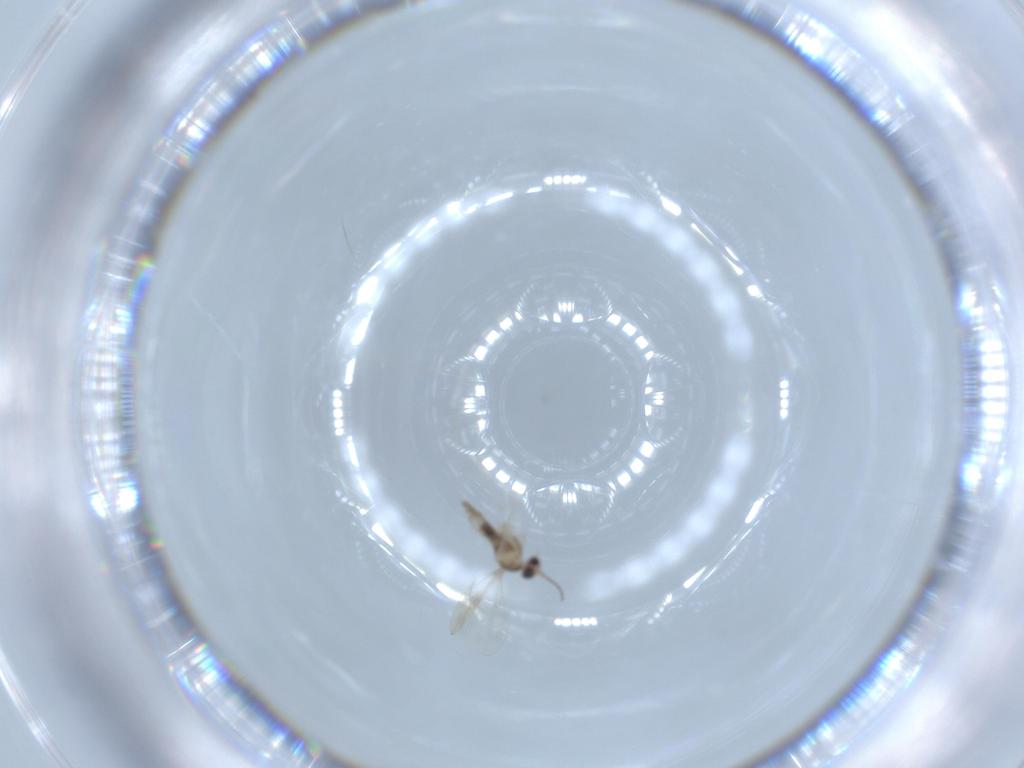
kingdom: Animalia
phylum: Arthropoda
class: Insecta
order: Diptera
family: Cecidomyiidae
